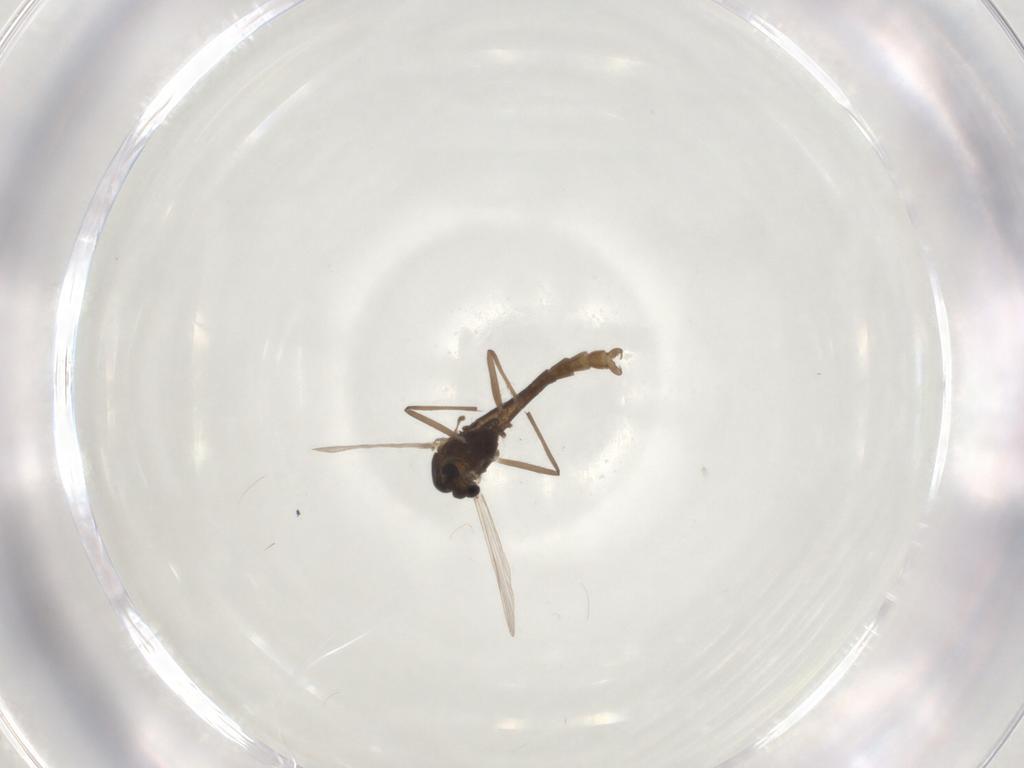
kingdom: Animalia
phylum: Arthropoda
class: Insecta
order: Diptera
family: Chironomidae
